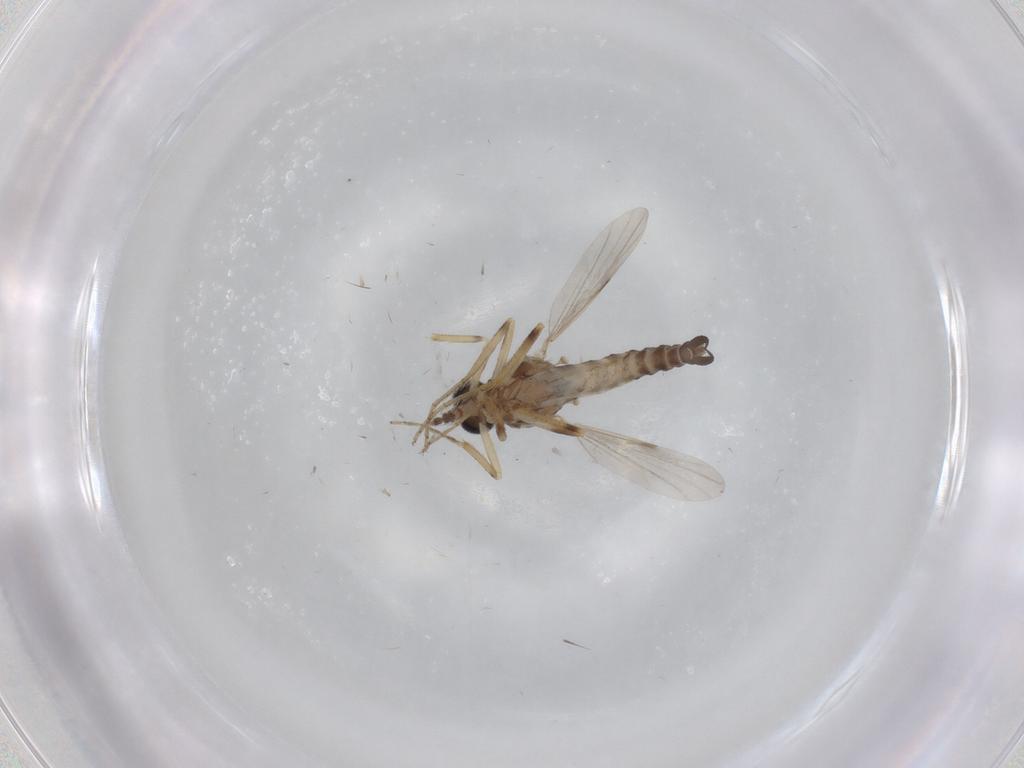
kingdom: Animalia
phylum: Arthropoda
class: Insecta
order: Diptera
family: Ceratopogonidae
